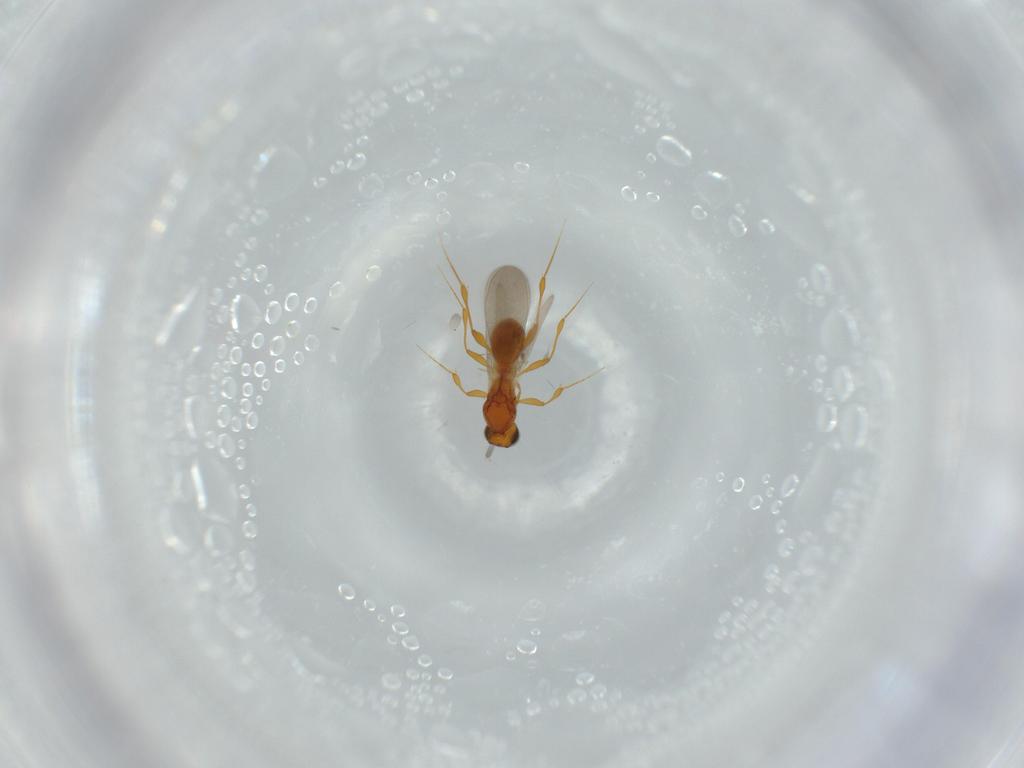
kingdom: Animalia
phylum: Arthropoda
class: Insecta
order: Hymenoptera
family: Platygastridae
